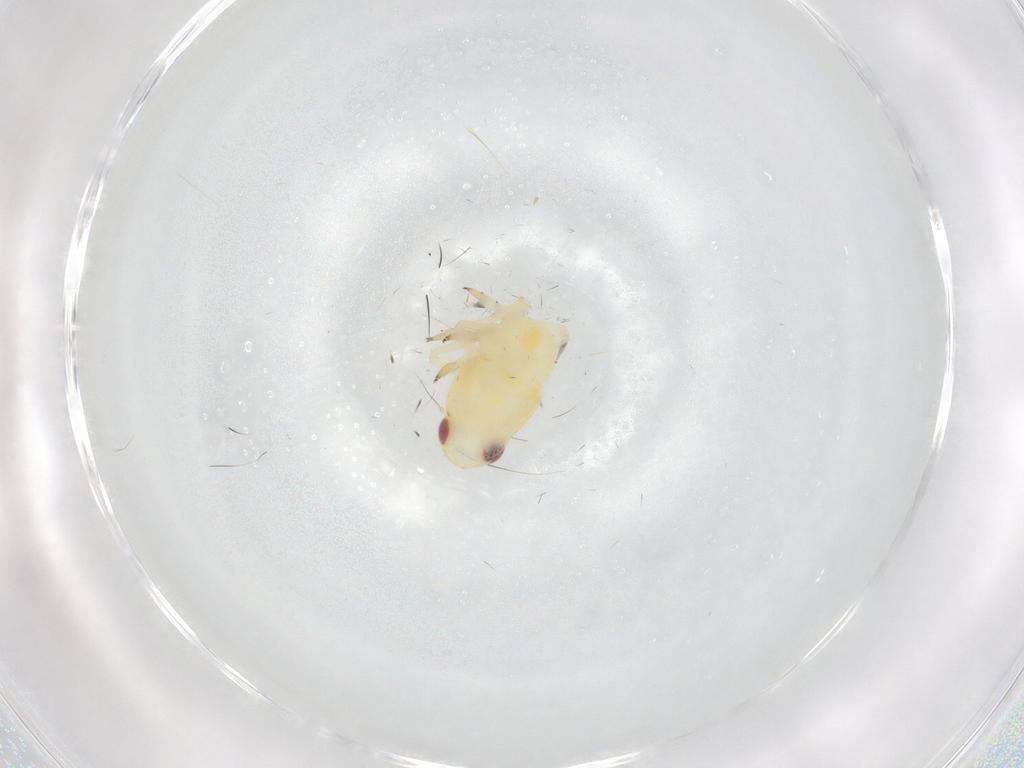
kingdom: Animalia
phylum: Arthropoda
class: Insecta
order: Hemiptera
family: Caliscelidae
